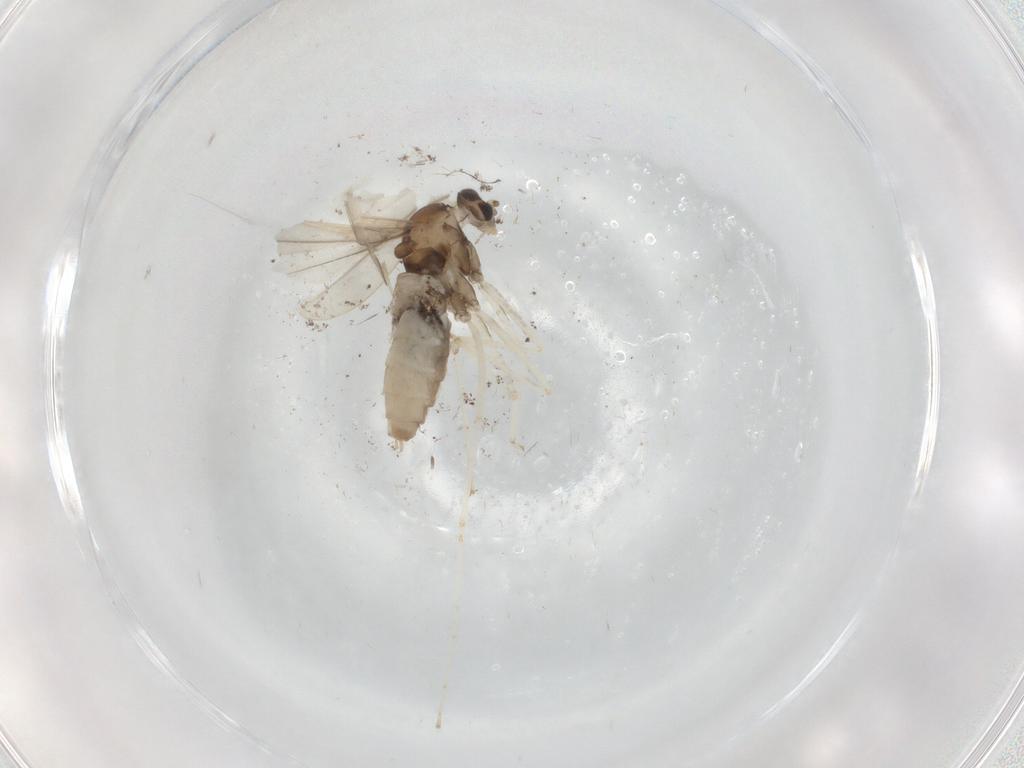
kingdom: Animalia
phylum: Arthropoda
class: Insecta
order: Diptera
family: Cecidomyiidae
